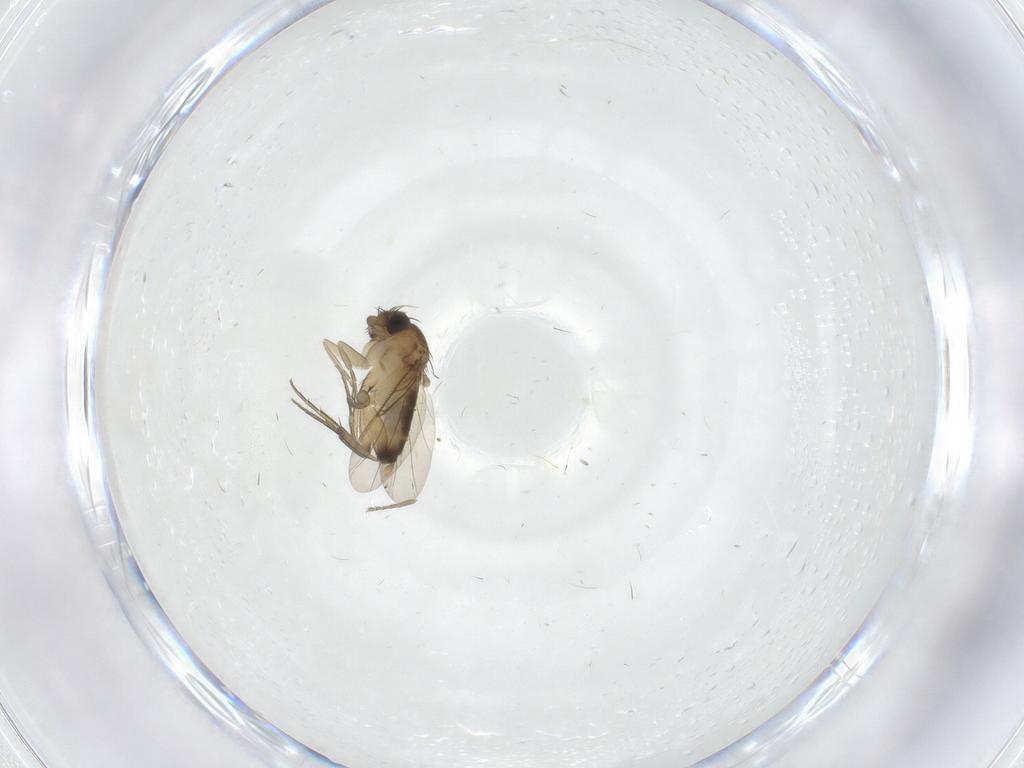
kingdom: Animalia
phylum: Arthropoda
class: Insecta
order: Diptera
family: Phoridae
